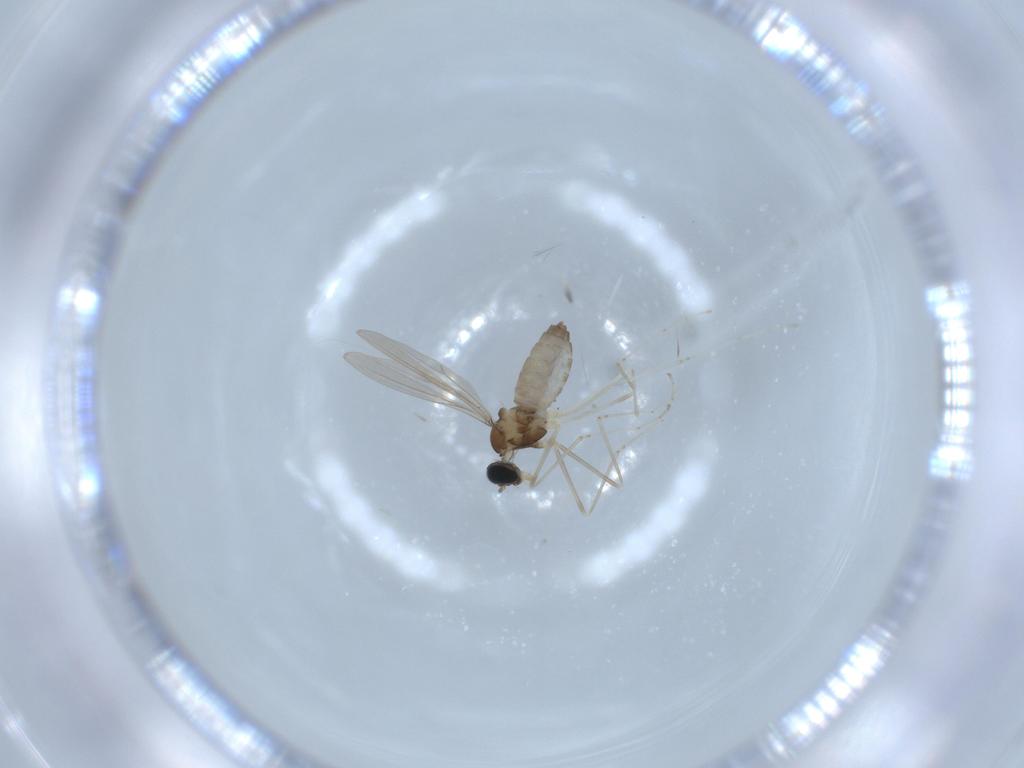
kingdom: Animalia
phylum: Arthropoda
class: Insecta
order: Diptera
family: Cecidomyiidae
